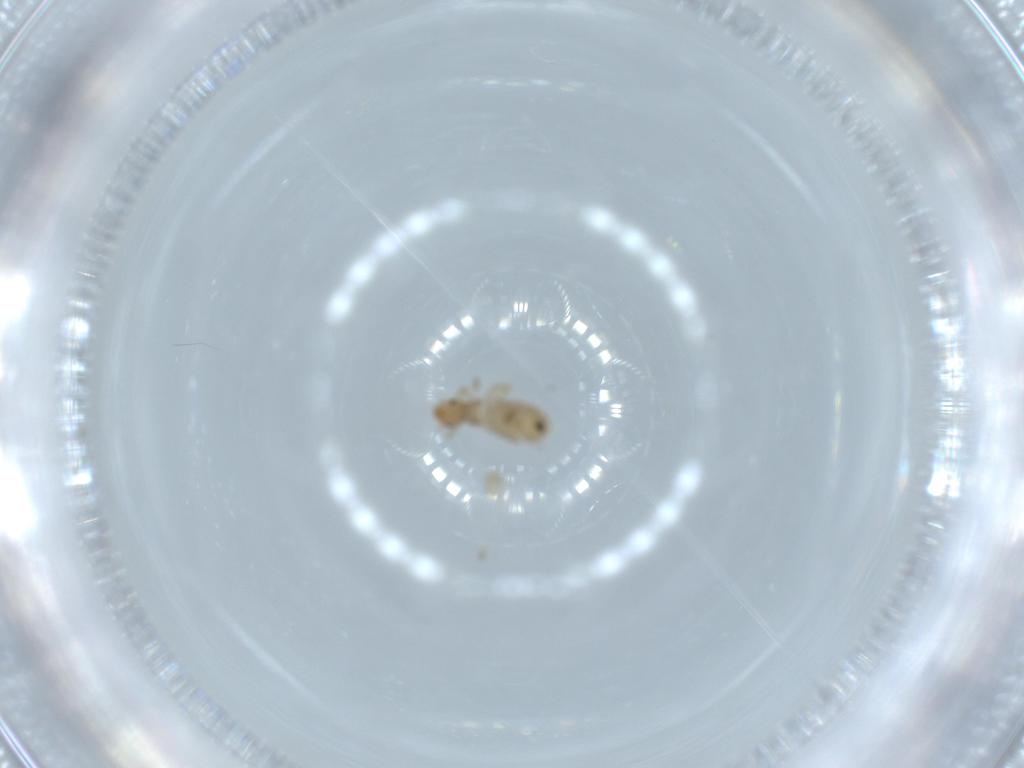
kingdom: Animalia
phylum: Arthropoda
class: Insecta
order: Psocodea
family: Liposcelididae
